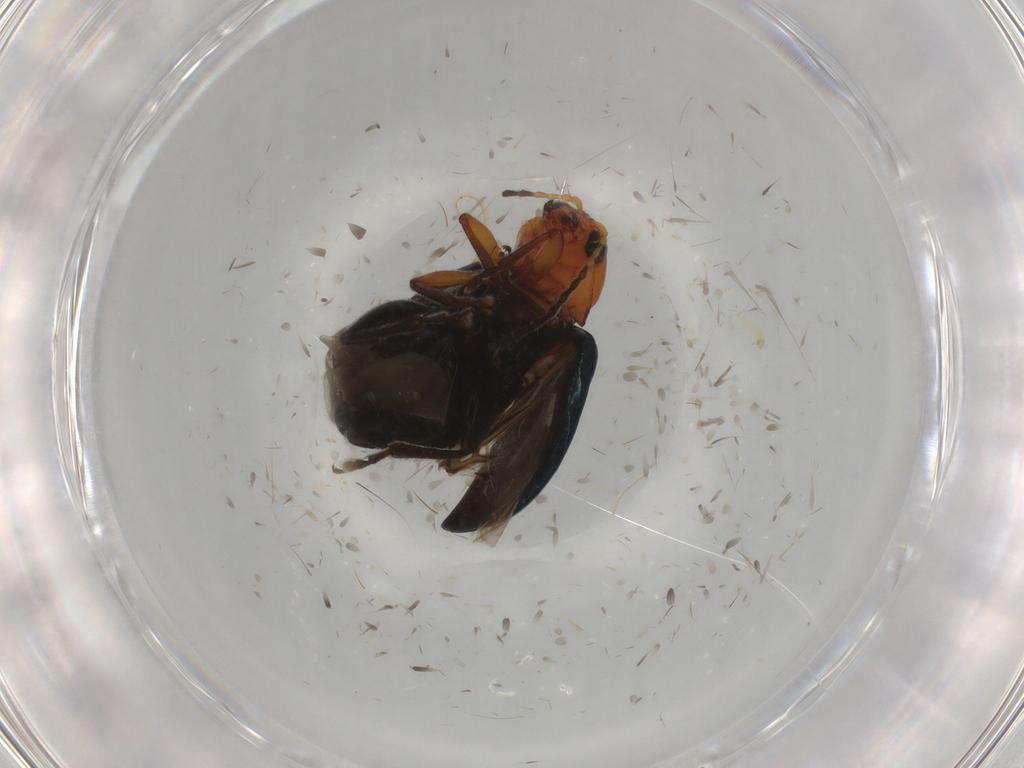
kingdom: Animalia
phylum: Arthropoda
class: Insecta
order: Coleoptera
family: Chrysomelidae
